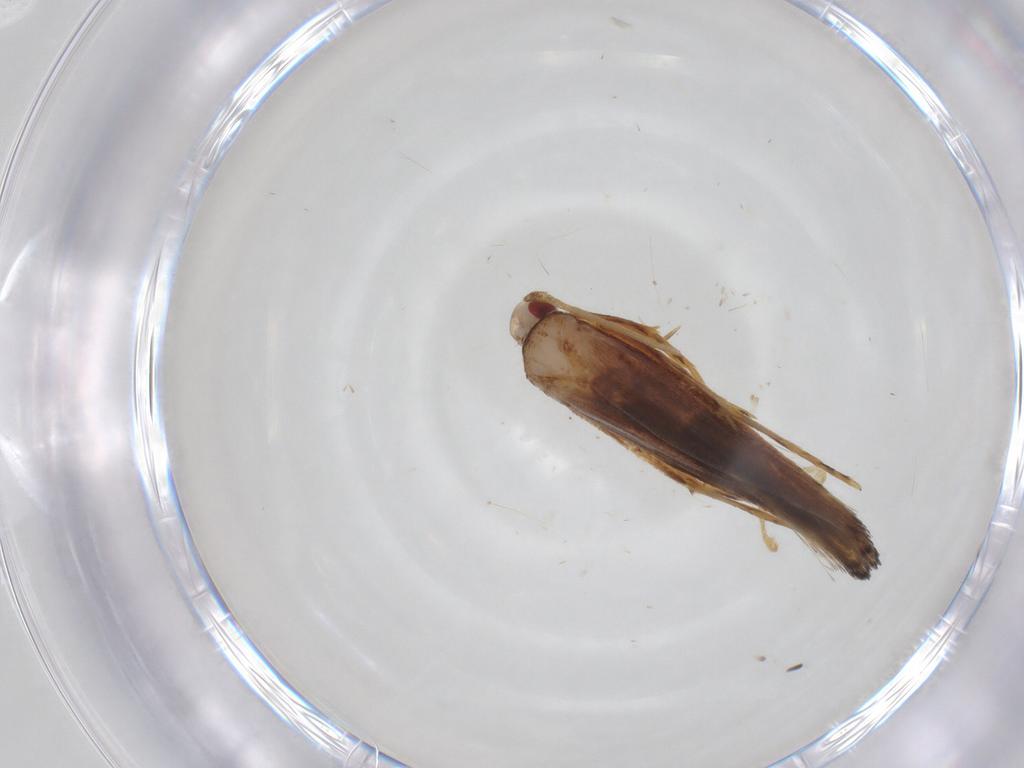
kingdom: Animalia
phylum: Arthropoda
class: Insecta
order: Lepidoptera
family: Cosmopterigidae
